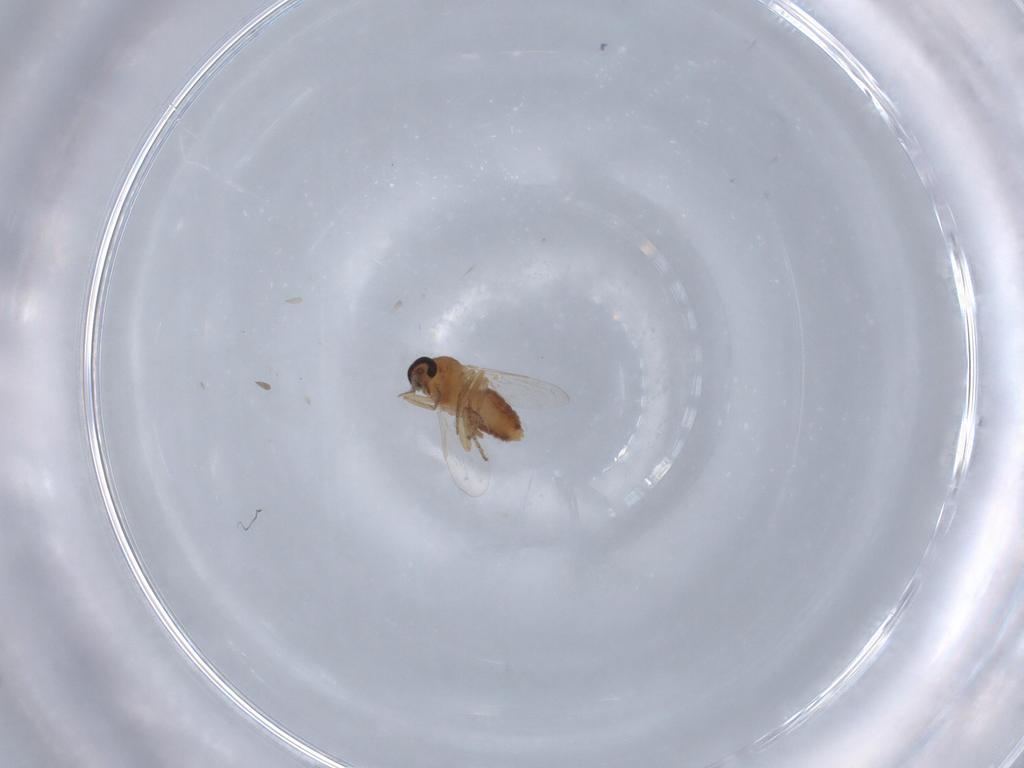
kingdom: Animalia
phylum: Arthropoda
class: Insecta
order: Diptera
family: Ceratopogonidae
